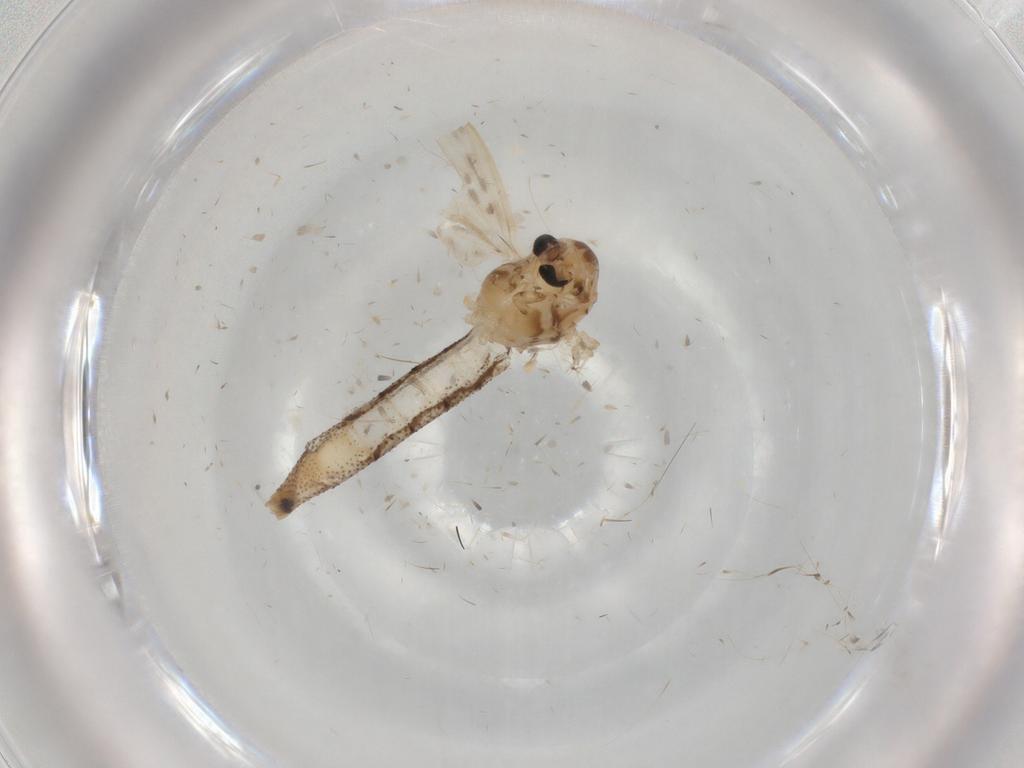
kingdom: Animalia
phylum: Arthropoda
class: Insecta
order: Diptera
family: Chaoboridae
